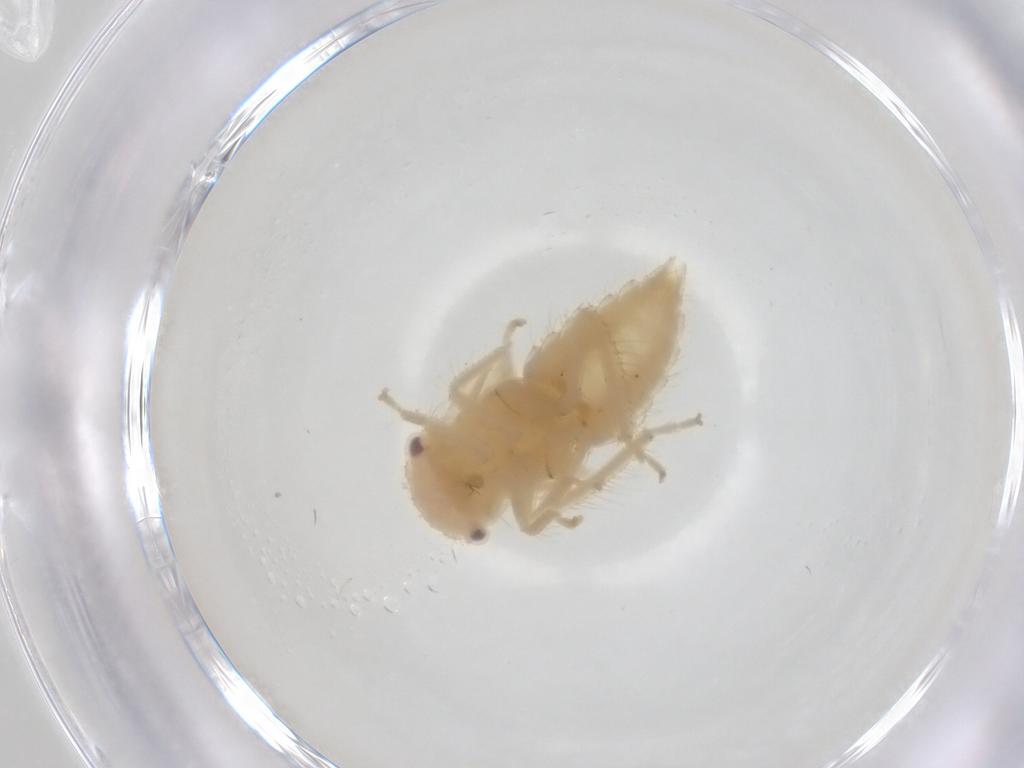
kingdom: Animalia
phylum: Arthropoda
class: Insecta
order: Hemiptera
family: Cicadellidae
